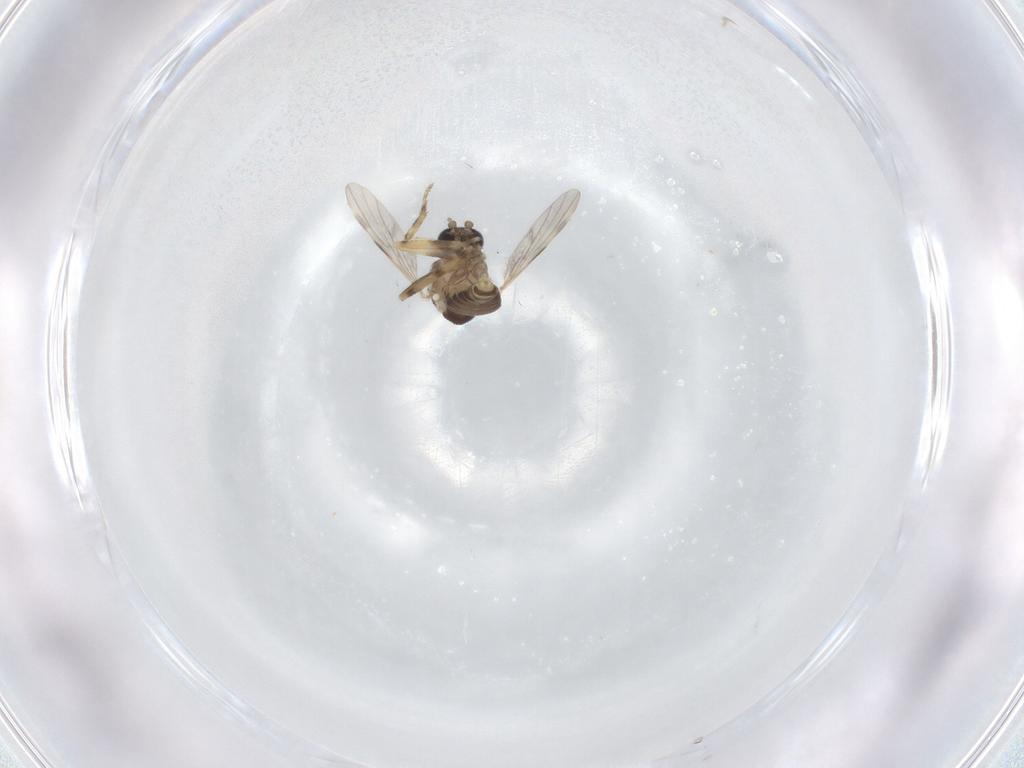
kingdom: Animalia
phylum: Arthropoda
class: Insecta
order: Diptera
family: Ceratopogonidae
